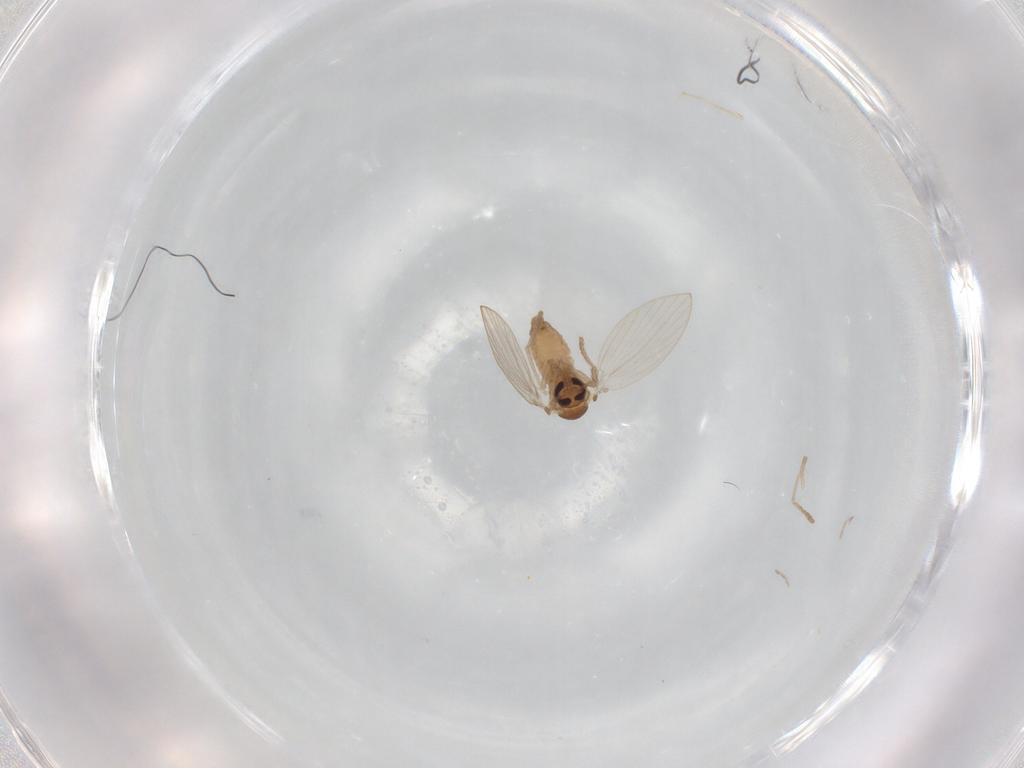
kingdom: Animalia
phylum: Arthropoda
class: Insecta
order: Diptera
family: Psychodidae
